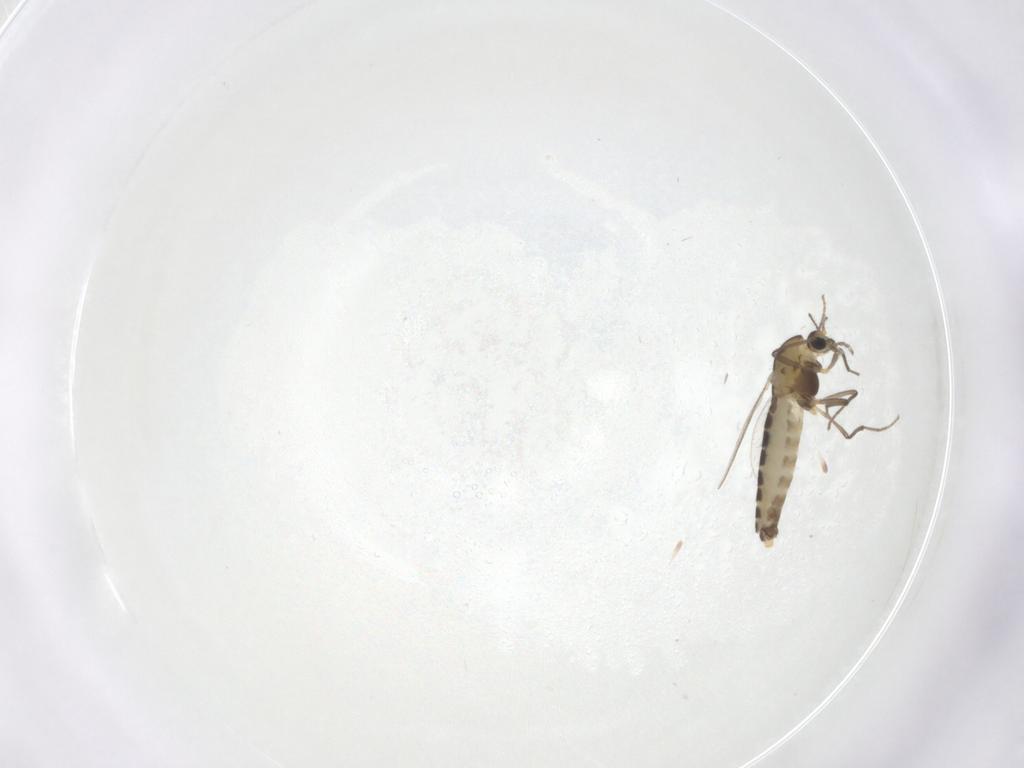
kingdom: Animalia
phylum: Arthropoda
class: Insecta
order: Diptera
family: Chironomidae
